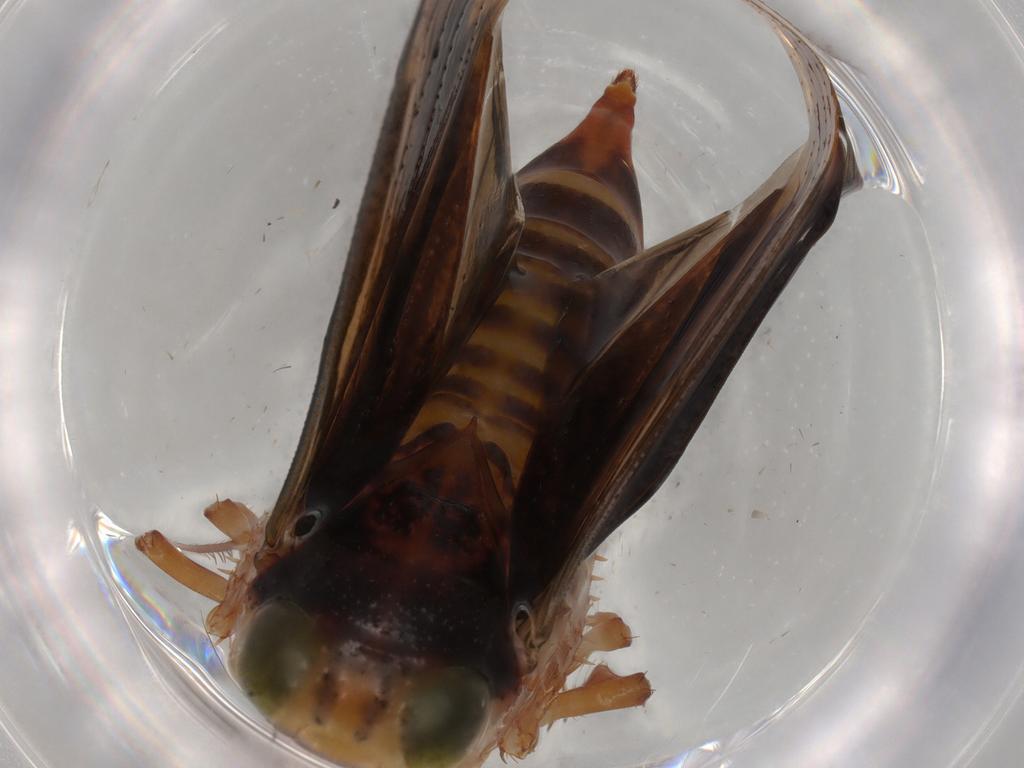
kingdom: Animalia
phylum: Arthropoda
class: Insecta
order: Hemiptera
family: Cicadellidae
